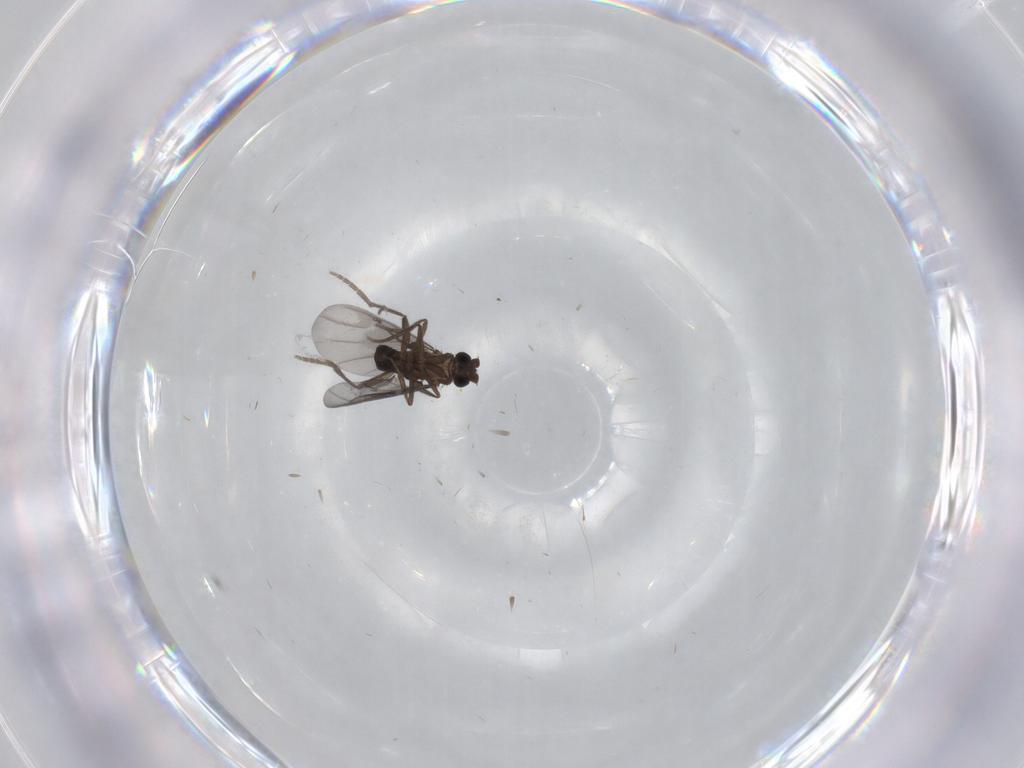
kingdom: Animalia
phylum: Arthropoda
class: Insecta
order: Diptera
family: Phoridae
